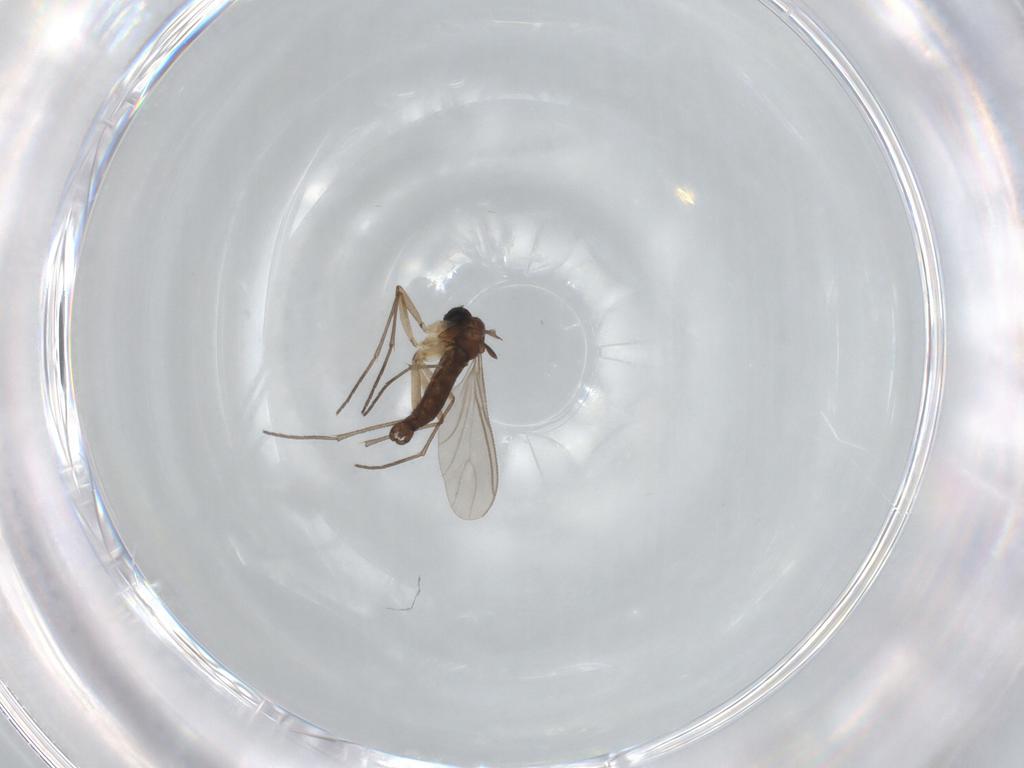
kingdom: Animalia
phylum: Arthropoda
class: Insecta
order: Diptera
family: Sciaridae
